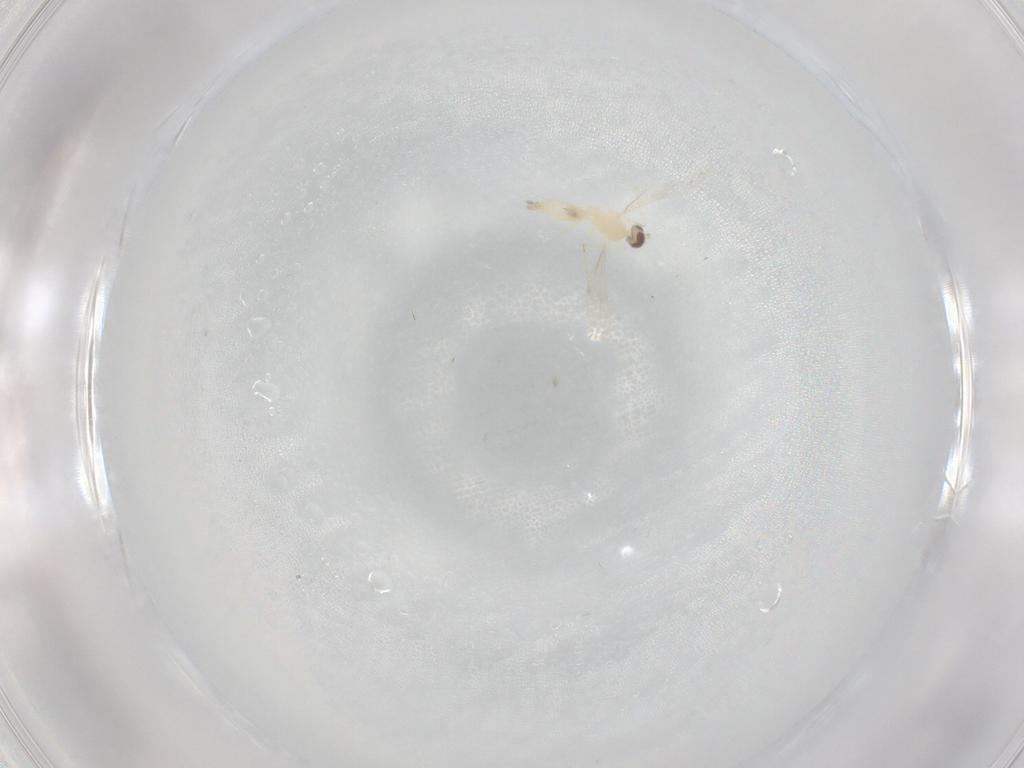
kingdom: Animalia
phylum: Arthropoda
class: Insecta
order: Diptera
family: Cecidomyiidae
